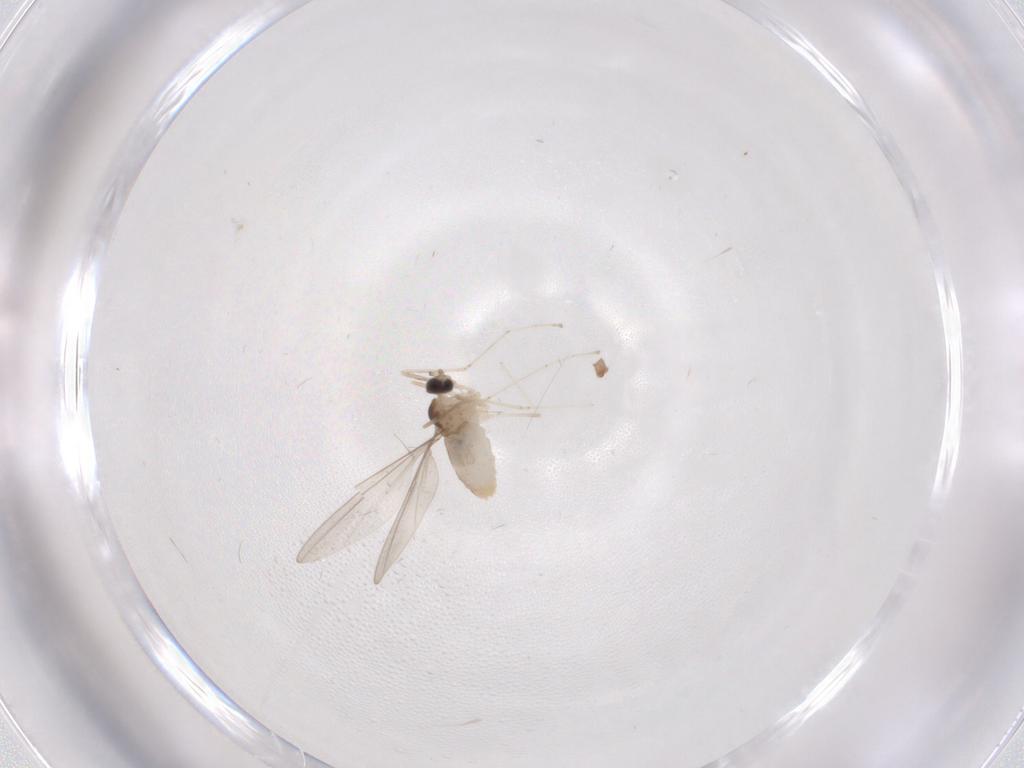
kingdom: Animalia
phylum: Arthropoda
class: Insecta
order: Diptera
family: Cecidomyiidae
